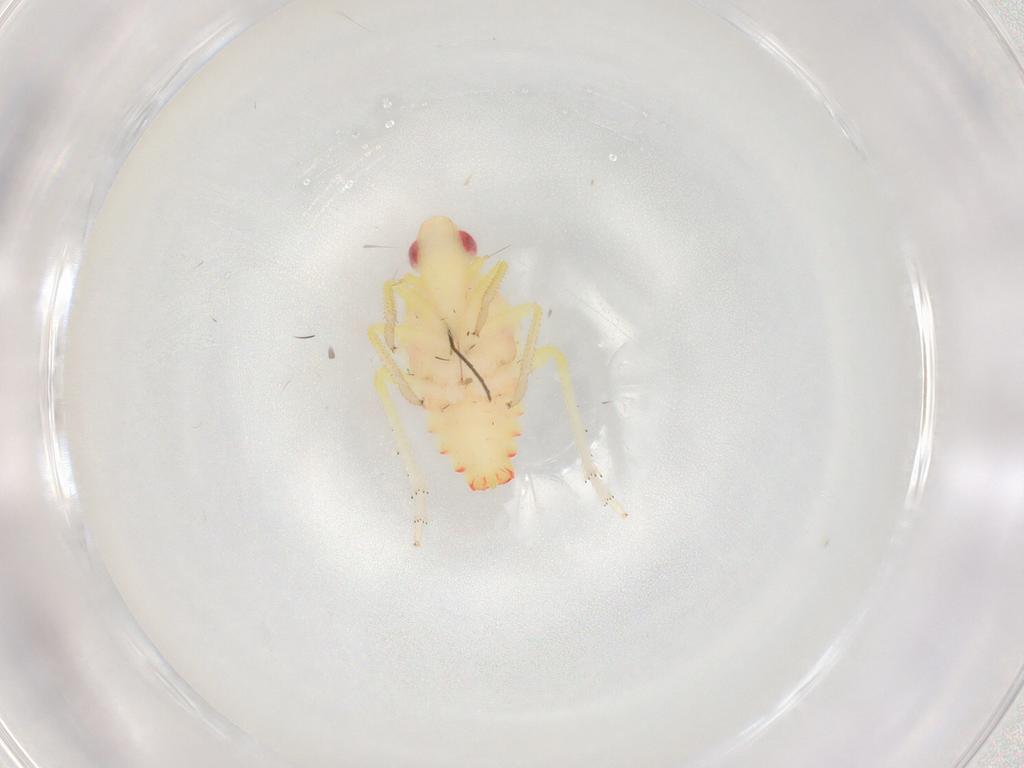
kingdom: Animalia
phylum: Arthropoda
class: Insecta
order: Hemiptera
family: Tropiduchidae
